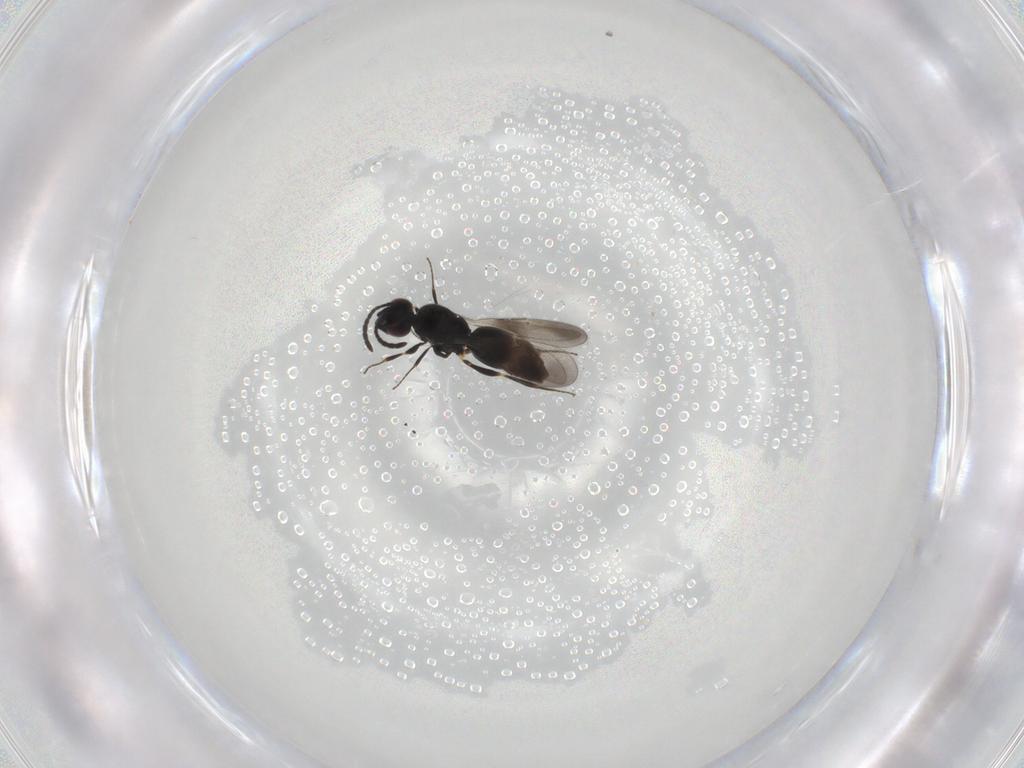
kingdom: Animalia
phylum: Arthropoda
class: Insecta
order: Hymenoptera
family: Ceraphronidae
